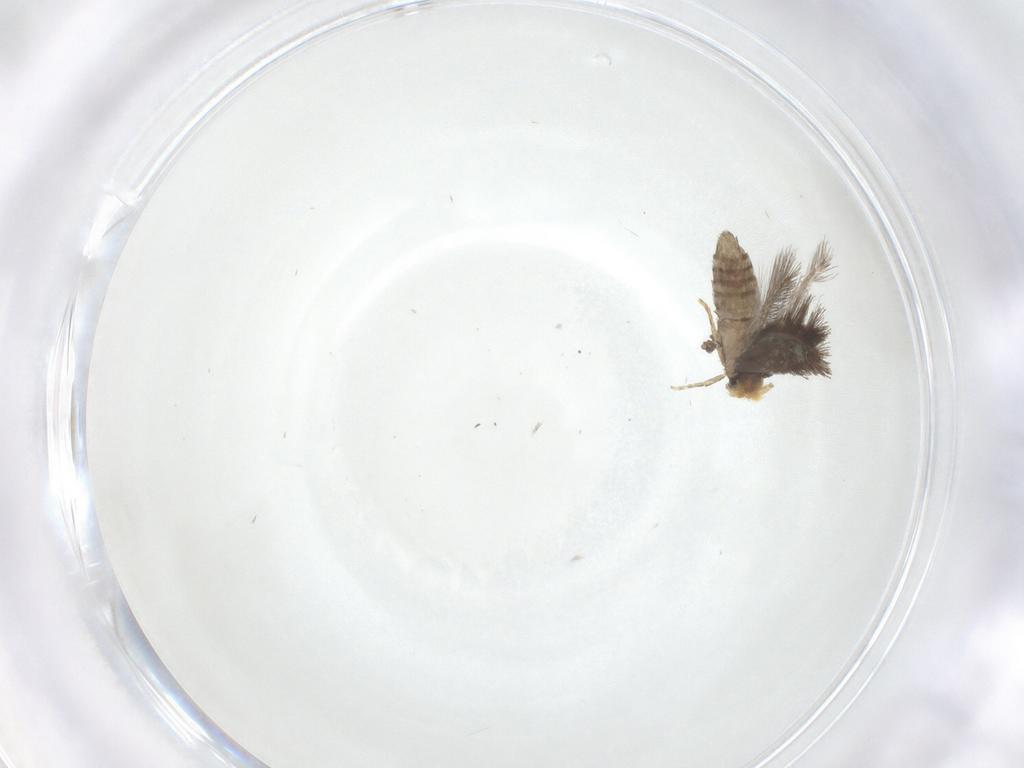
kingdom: Animalia
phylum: Arthropoda
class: Insecta
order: Lepidoptera
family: Nepticulidae
